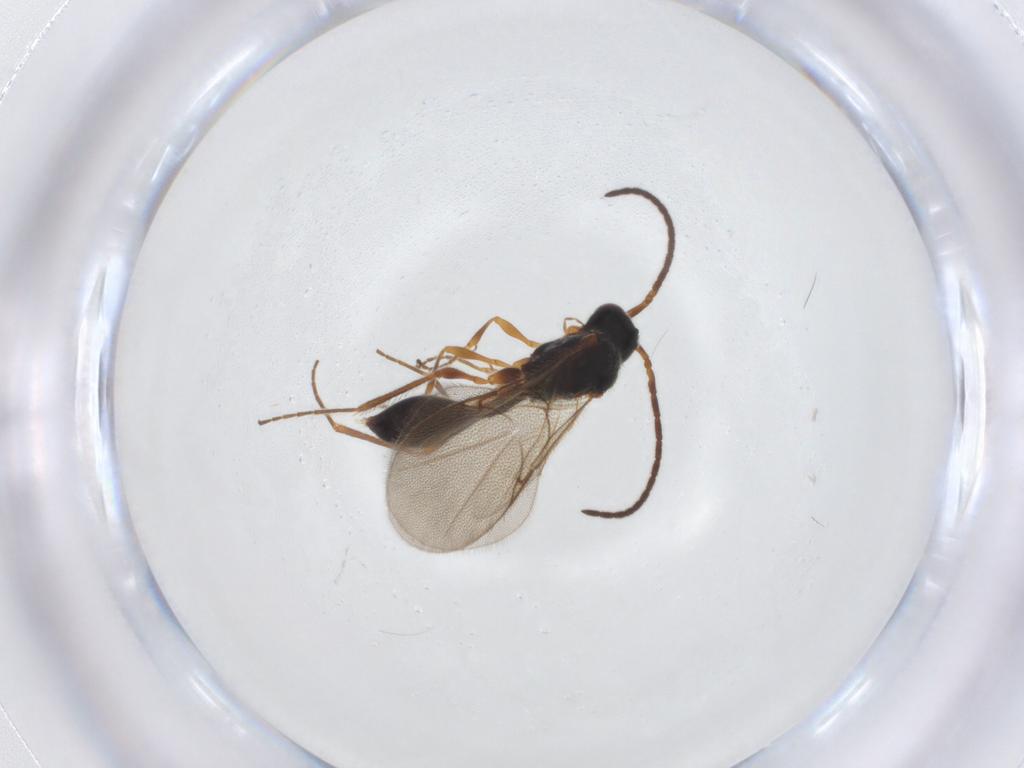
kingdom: Animalia
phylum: Arthropoda
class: Insecta
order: Hymenoptera
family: Diapriidae
